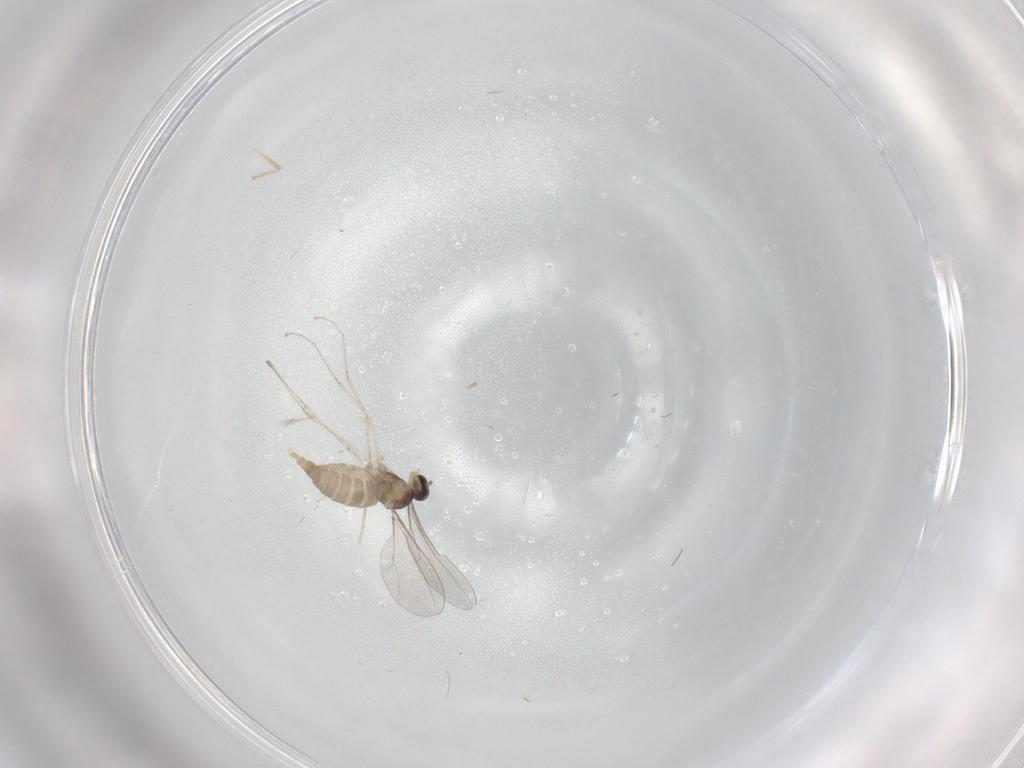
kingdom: Animalia
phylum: Arthropoda
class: Insecta
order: Diptera
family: Cecidomyiidae
